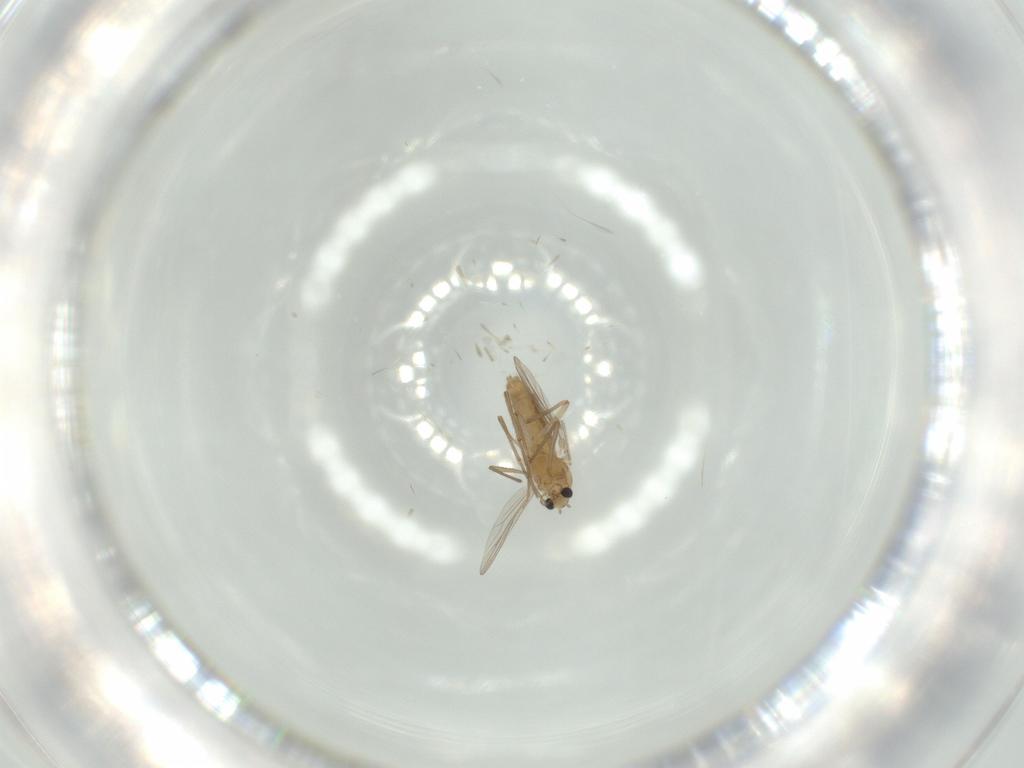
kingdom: Animalia
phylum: Arthropoda
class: Insecta
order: Diptera
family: Chironomidae
